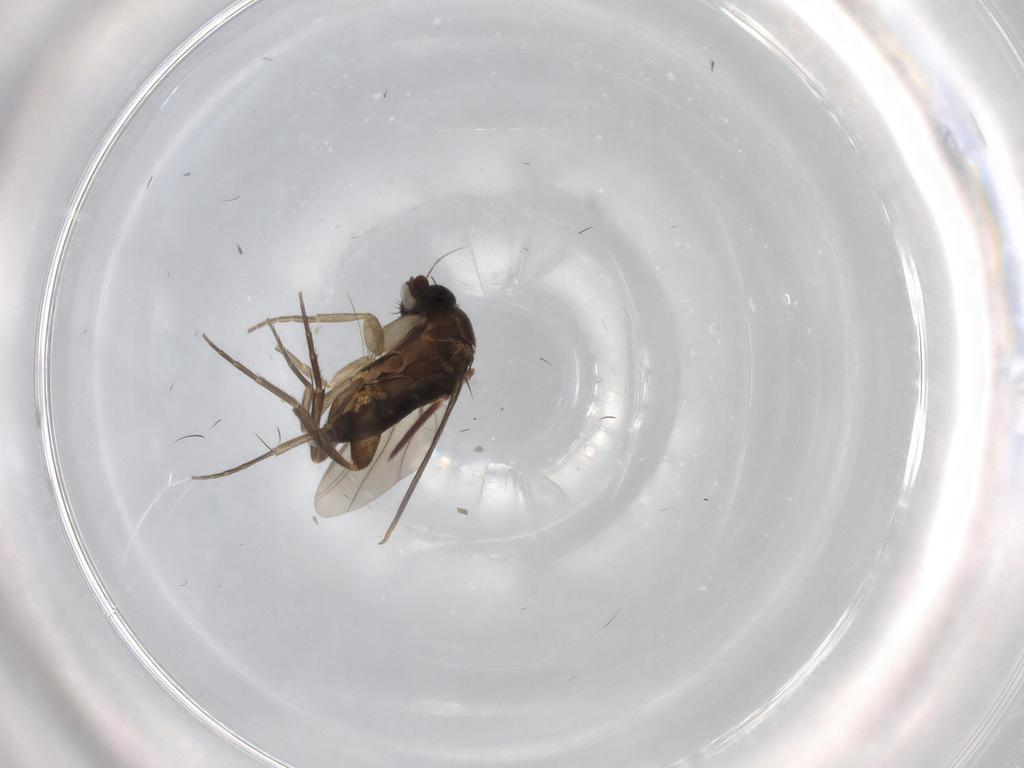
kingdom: Animalia
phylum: Arthropoda
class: Insecta
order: Diptera
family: Phoridae
